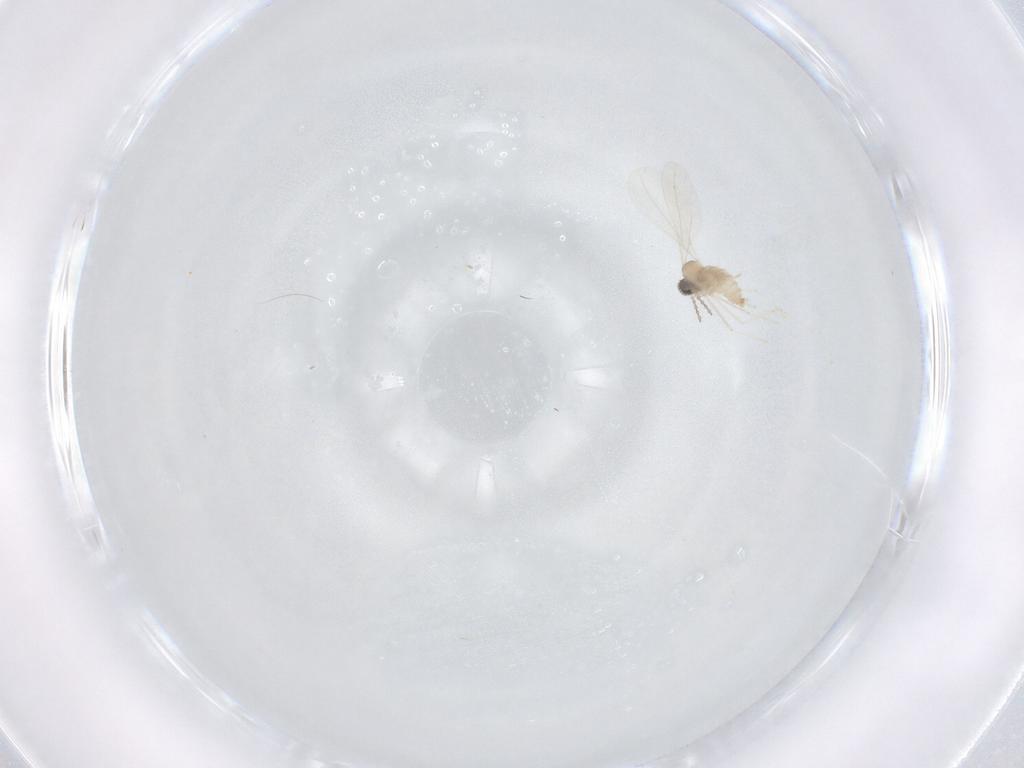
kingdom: Animalia
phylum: Arthropoda
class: Insecta
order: Diptera
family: Cecidomyiidae
